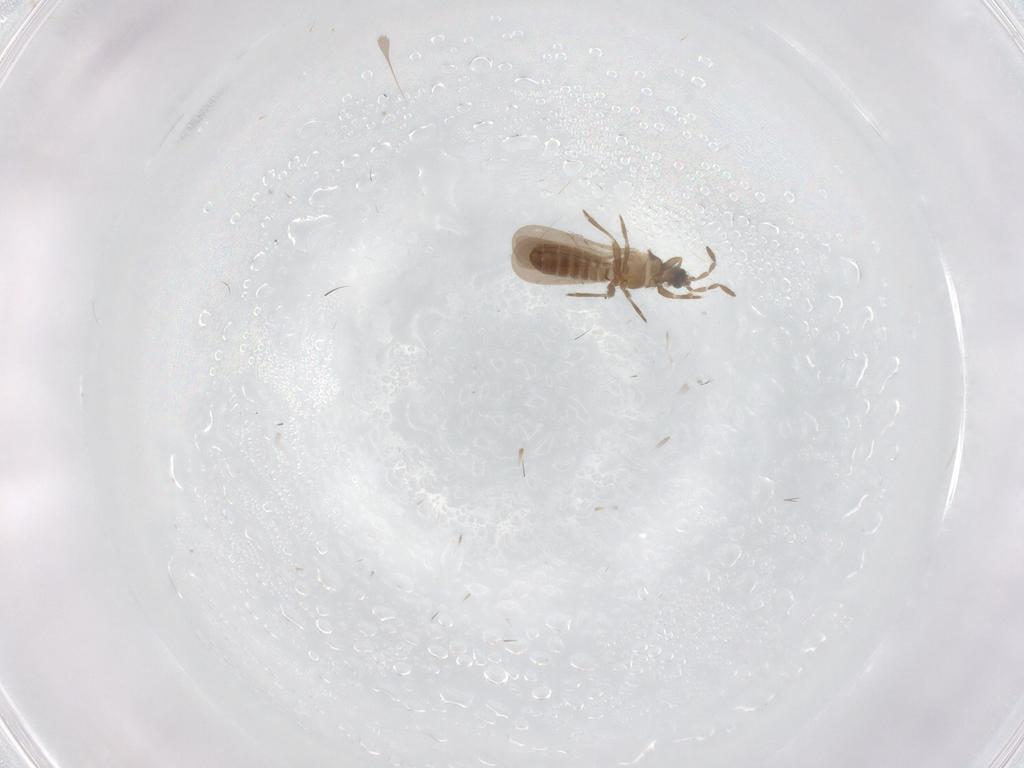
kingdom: Animalia
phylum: Arthropoda
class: Insecta
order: Hemiptera
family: Enicocephalidae
